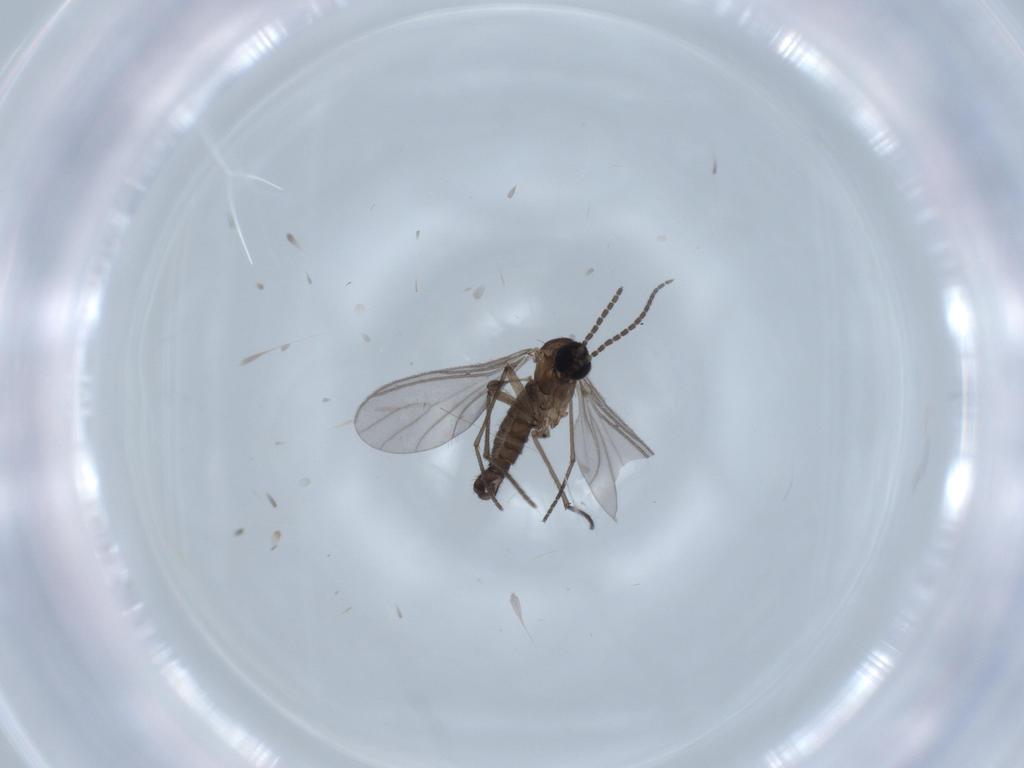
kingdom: Animalia
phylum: Arthropoda
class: Insecta
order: Diptera
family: Sciaridae
